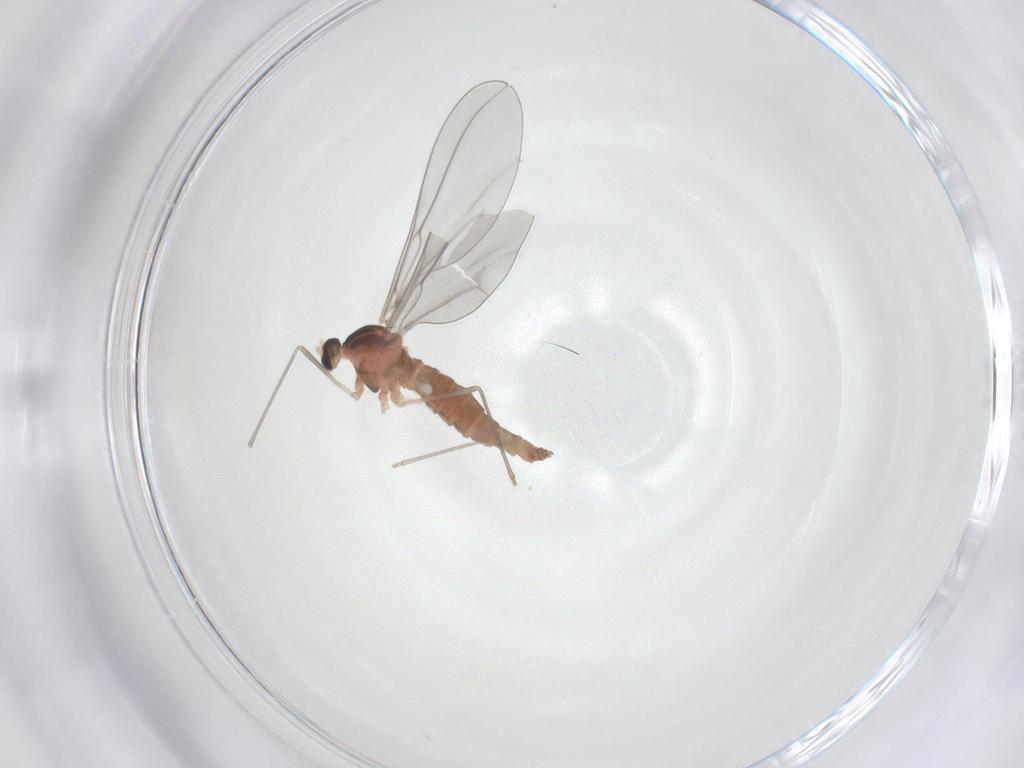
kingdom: Animalia
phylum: Arthropoda
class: Insecta
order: Diptera
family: Cecidomyiidae
